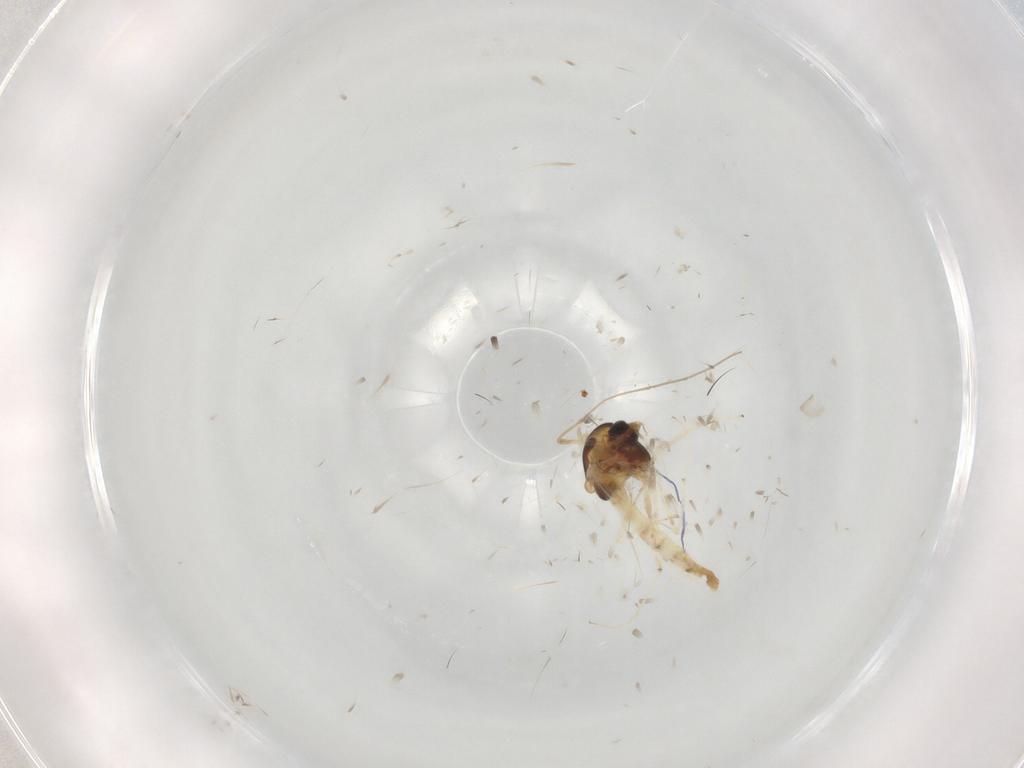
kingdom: Animalia
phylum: Arthropoda
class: Insecta
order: Diptera
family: Chironomidae
